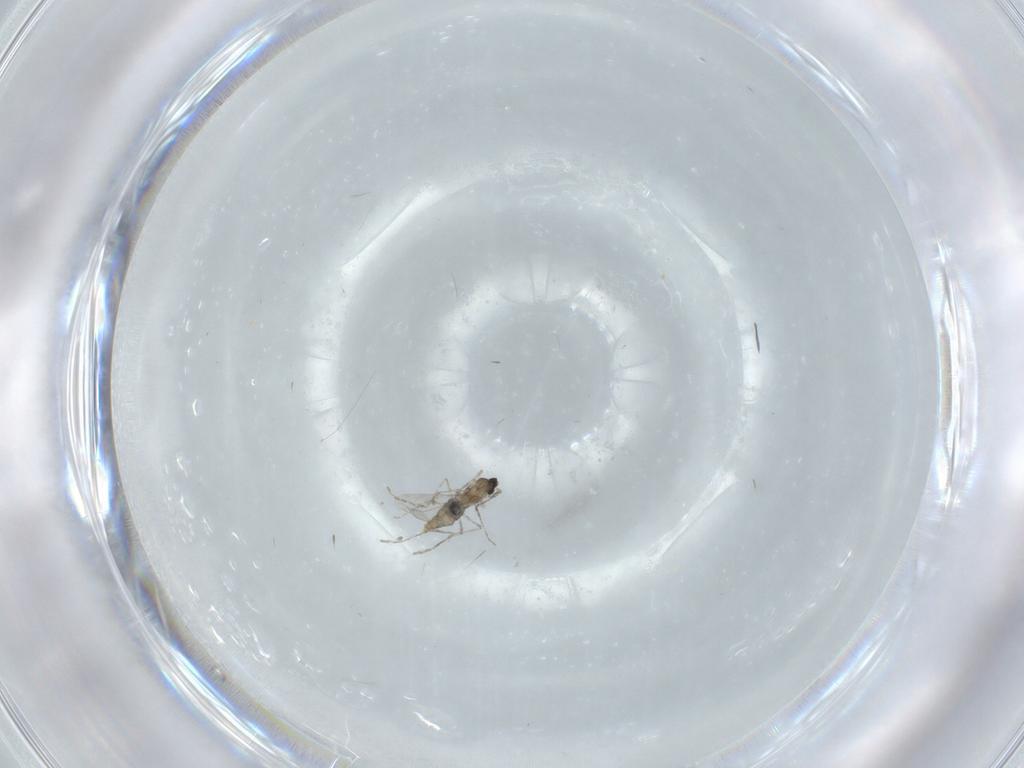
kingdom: Animalia
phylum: Arthropoda
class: Insecta
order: Diptera
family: Cecidomyiidae
